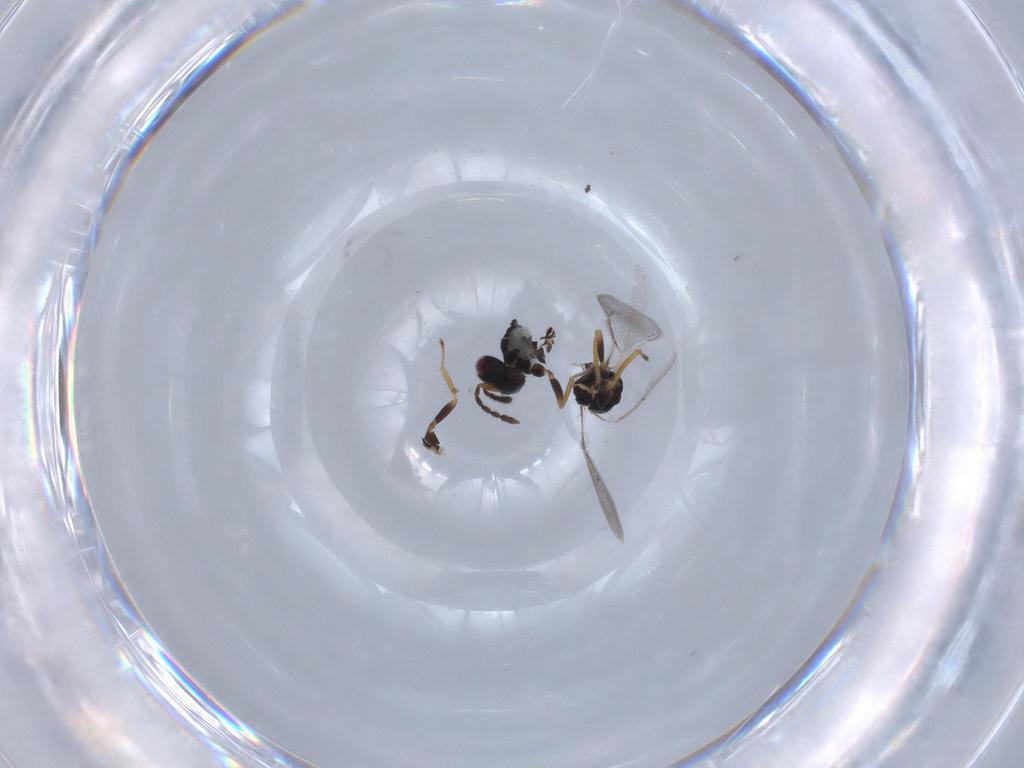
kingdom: Animalia
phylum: Arthropoda
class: Insecta
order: Hymenoptera
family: Eulophidae
